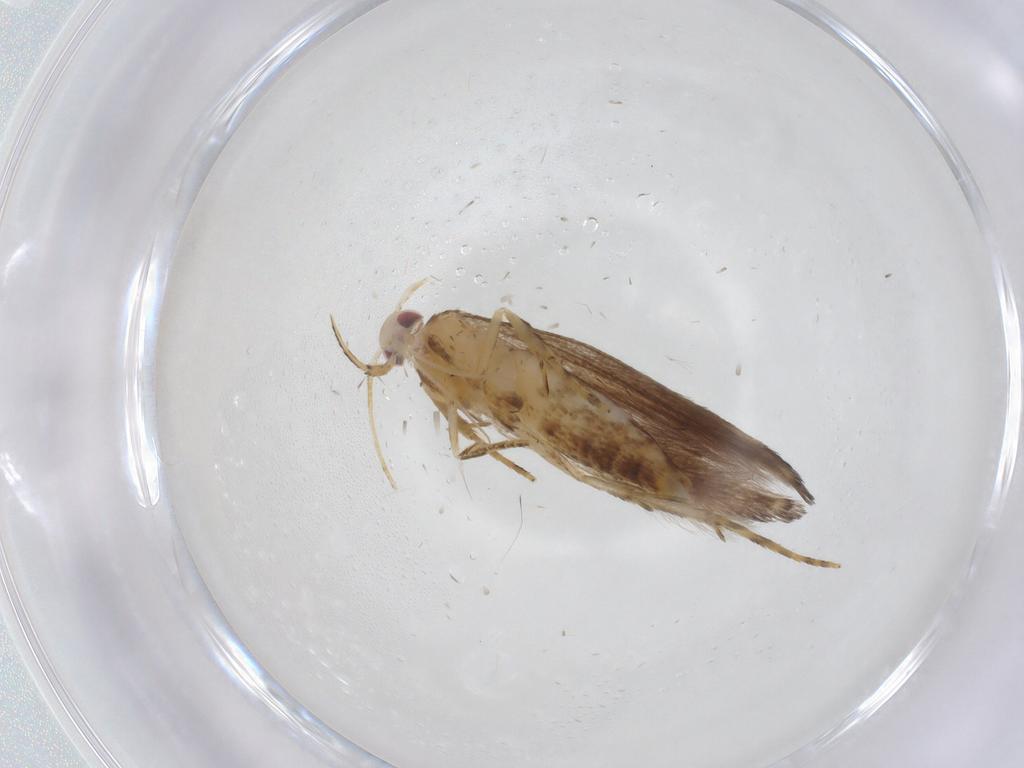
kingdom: Animalia
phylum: Arthropoda
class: Insecta
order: Lepidoptera
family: Cosmopterigidae
